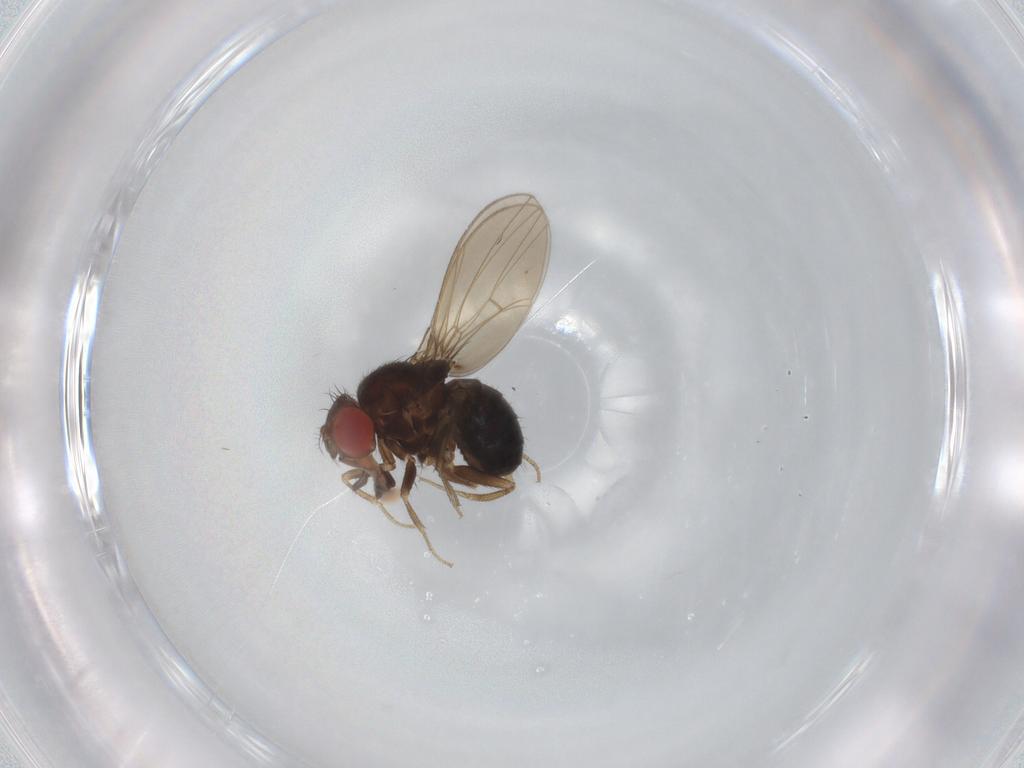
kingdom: Animalia
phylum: Arthropoda
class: Insecta
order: Diptera
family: Drosophilidae
